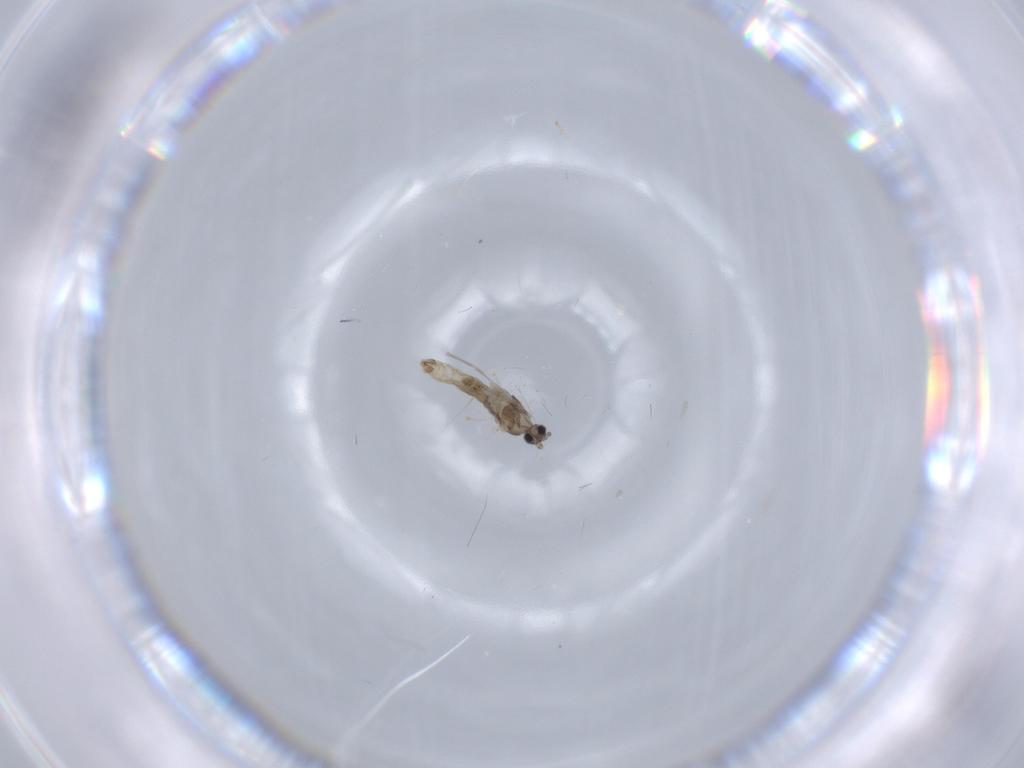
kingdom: Animalia
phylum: Arthropoda
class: Insecta
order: Diptera
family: Cecidomyiidae
